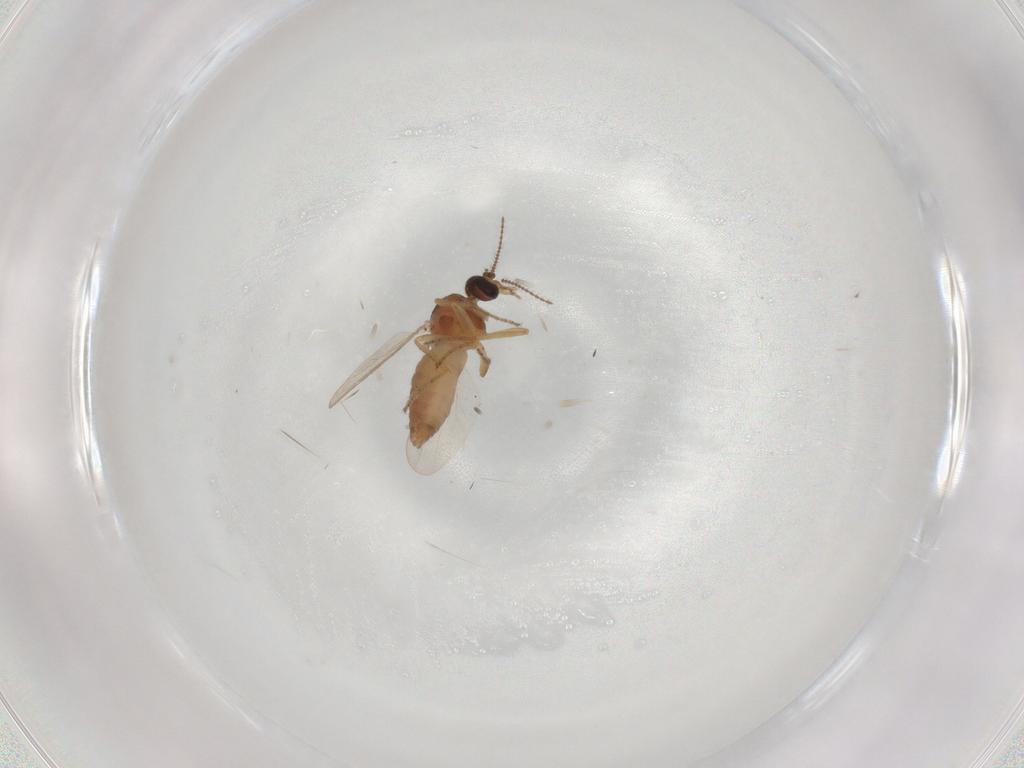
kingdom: Animalia
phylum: Arthropoda
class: Insecta
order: Diptera
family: Ceratopogonidae
